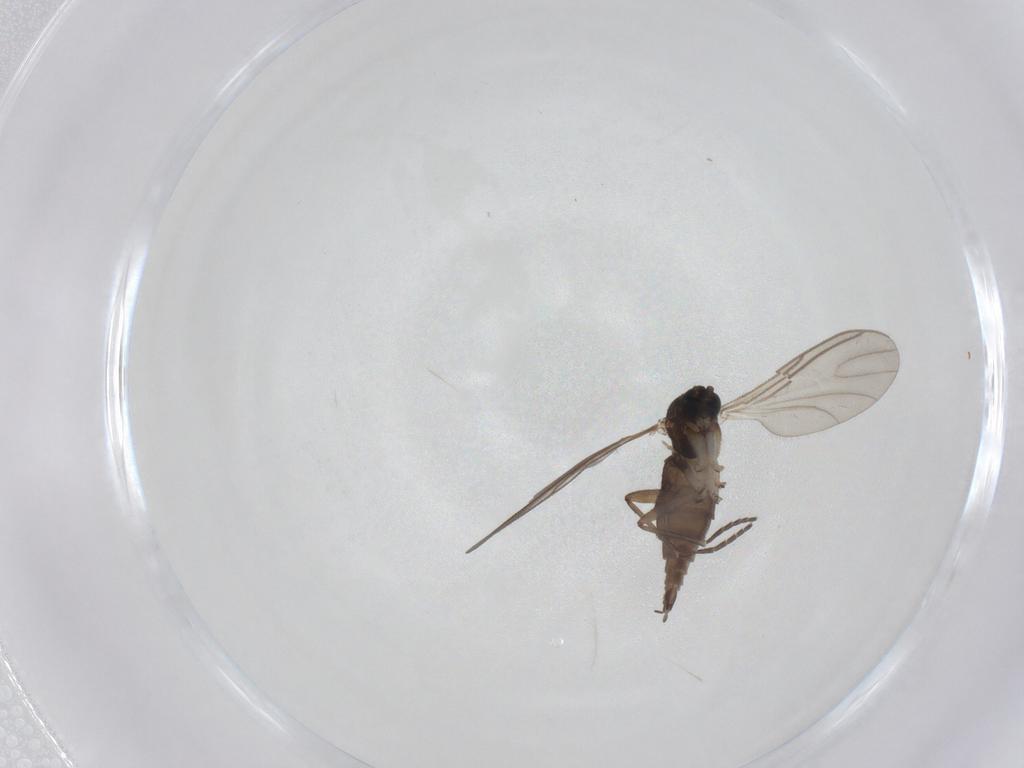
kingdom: Animalia
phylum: Arthropoda
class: Insecta
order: Diptera
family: Sciaridae
